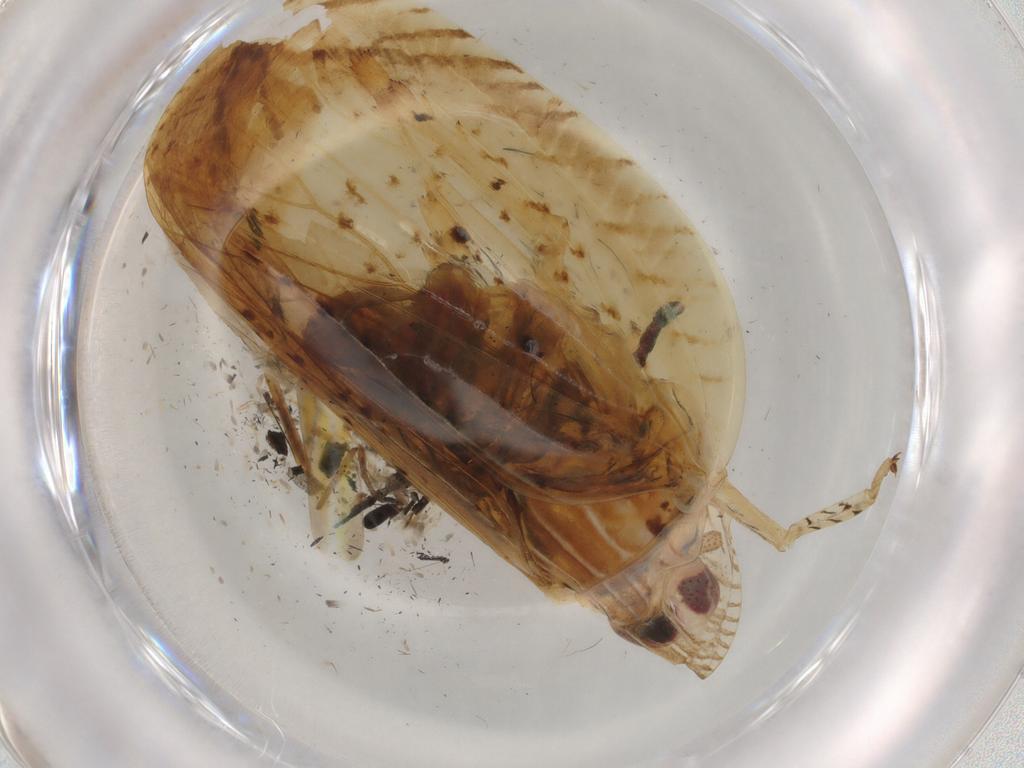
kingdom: Animalia
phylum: Arthropoda
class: Insecta
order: Hemiptera
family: Lophopidae
